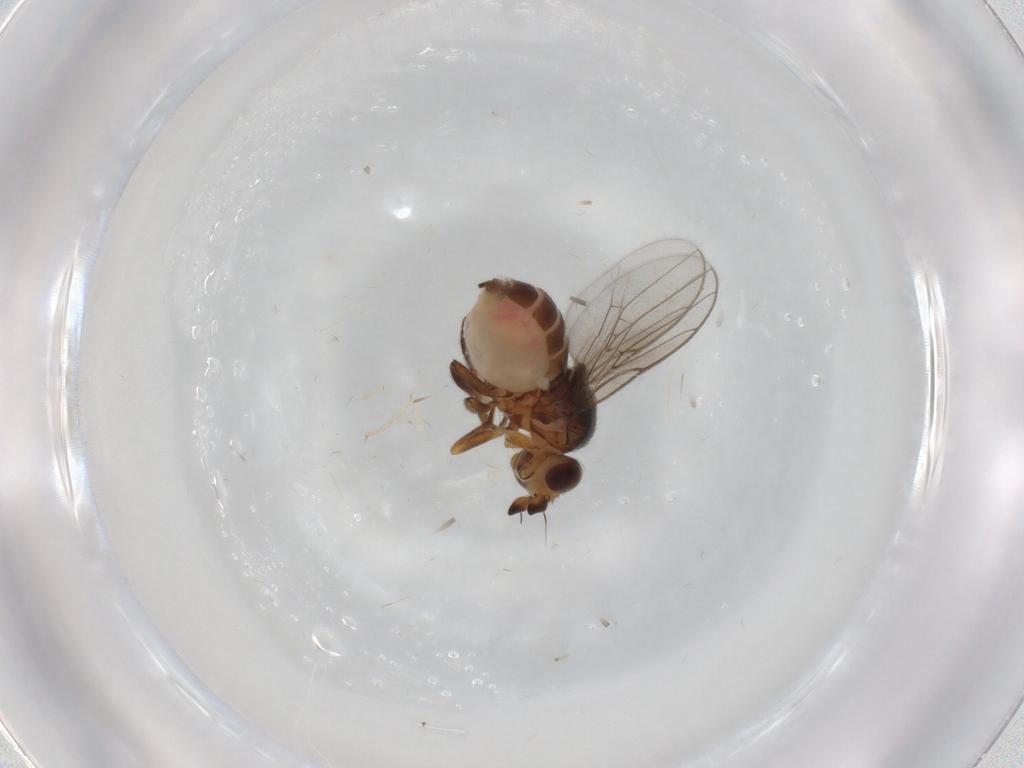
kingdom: Animalia
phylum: Arthropoda
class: Insecta
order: Diptera
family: Chloropidae
